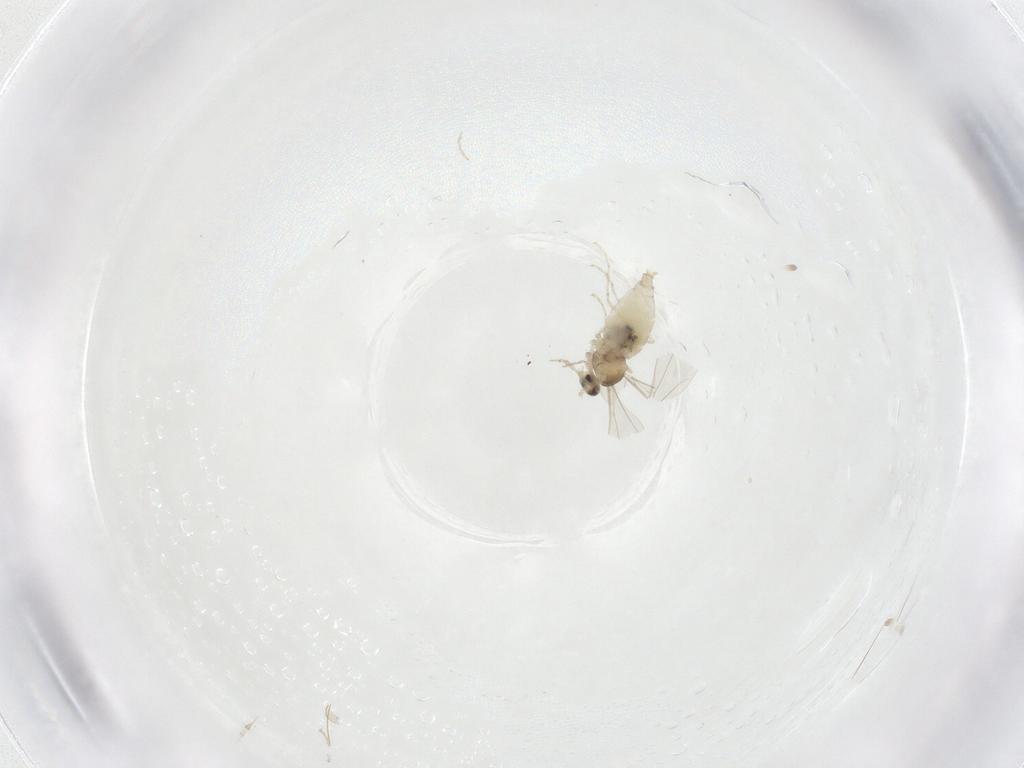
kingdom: Animalia
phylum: Arthropoda
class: Insecta
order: Diptera
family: Cecidomyiidae
